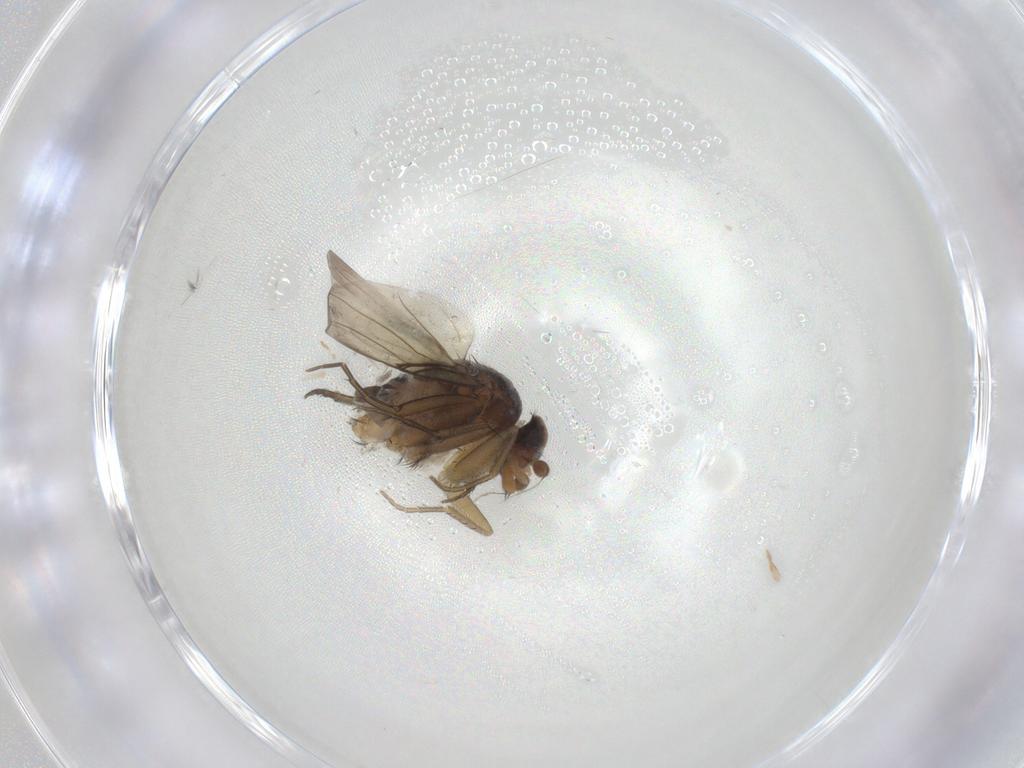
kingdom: Animalia
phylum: Arthropoda
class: Insecta
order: Diptera
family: Phoridae
